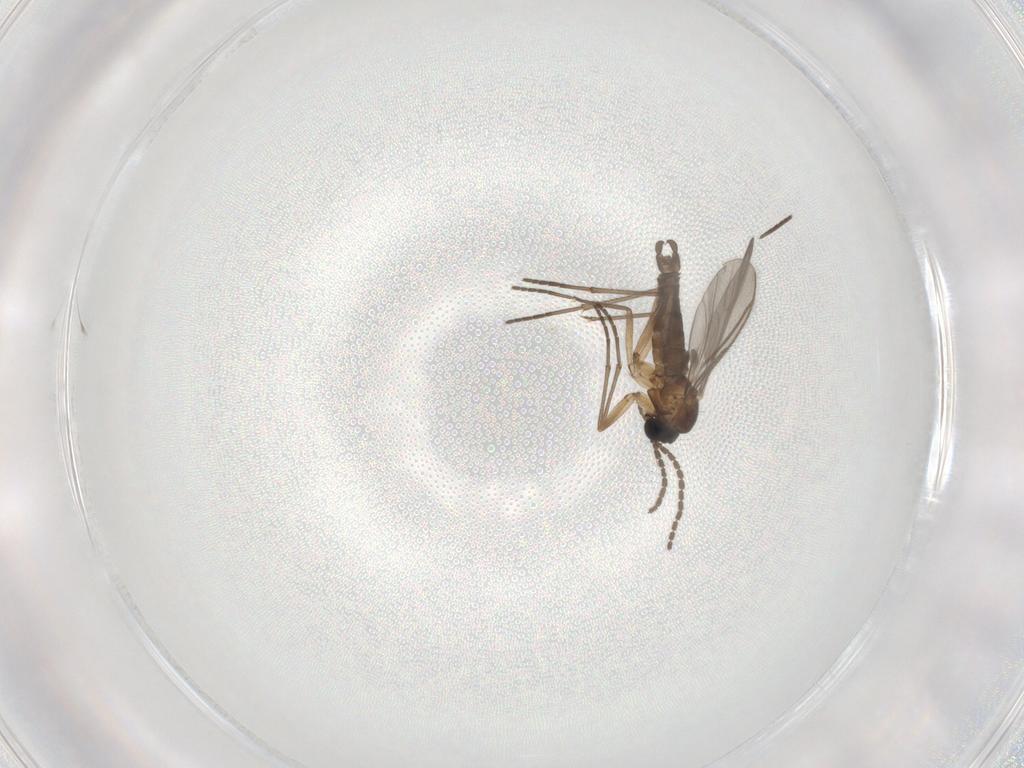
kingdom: Animalia
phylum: Arthropoda
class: Insecta
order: Diptera
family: Sciaridae
